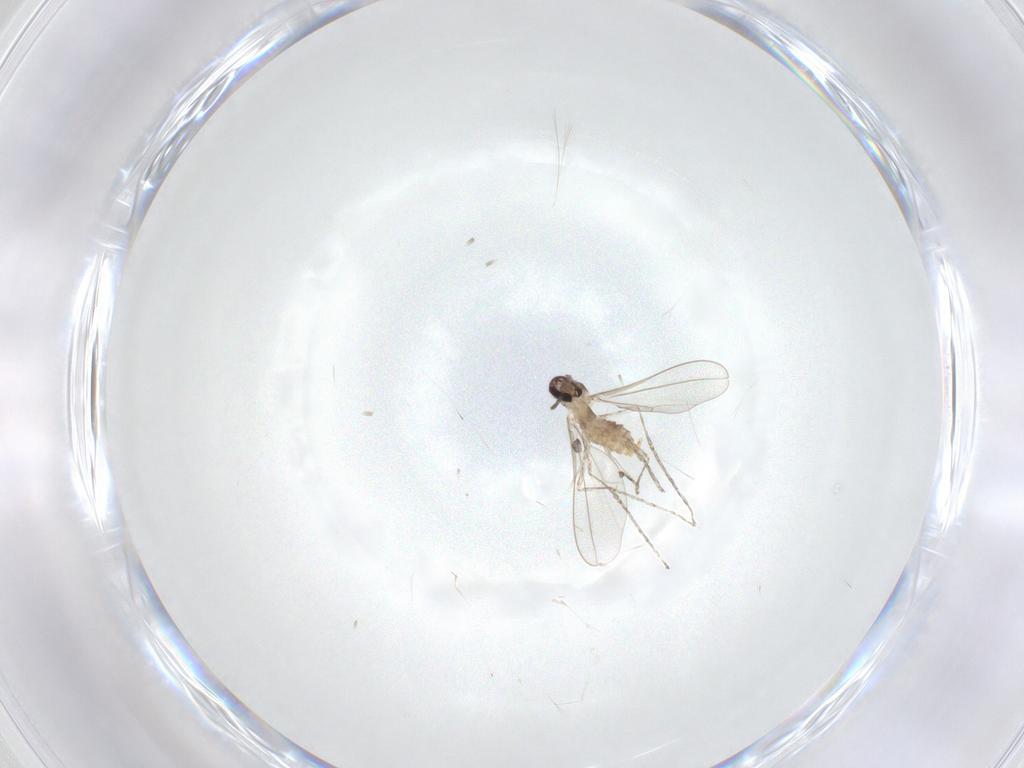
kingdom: Animalia
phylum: Arthropoda
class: Insecta
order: Diptera
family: Cecidomyiidae
